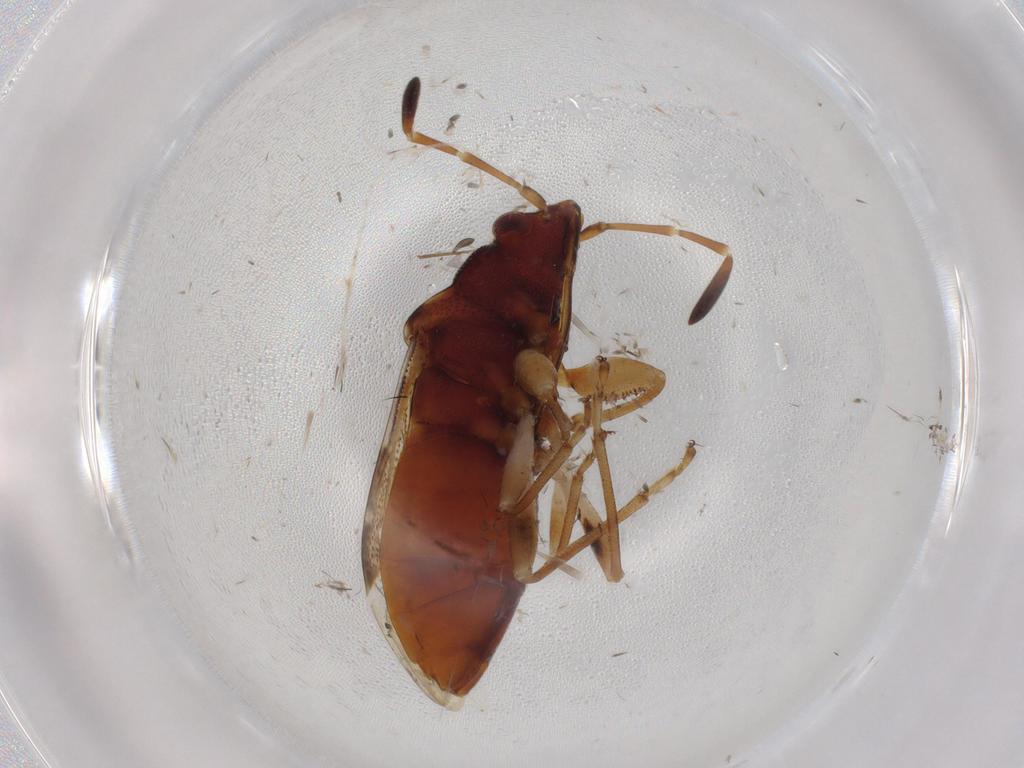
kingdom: Animalia
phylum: Arthropoda
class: Insecta
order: Hemiptera
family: Rhyparochromidae
